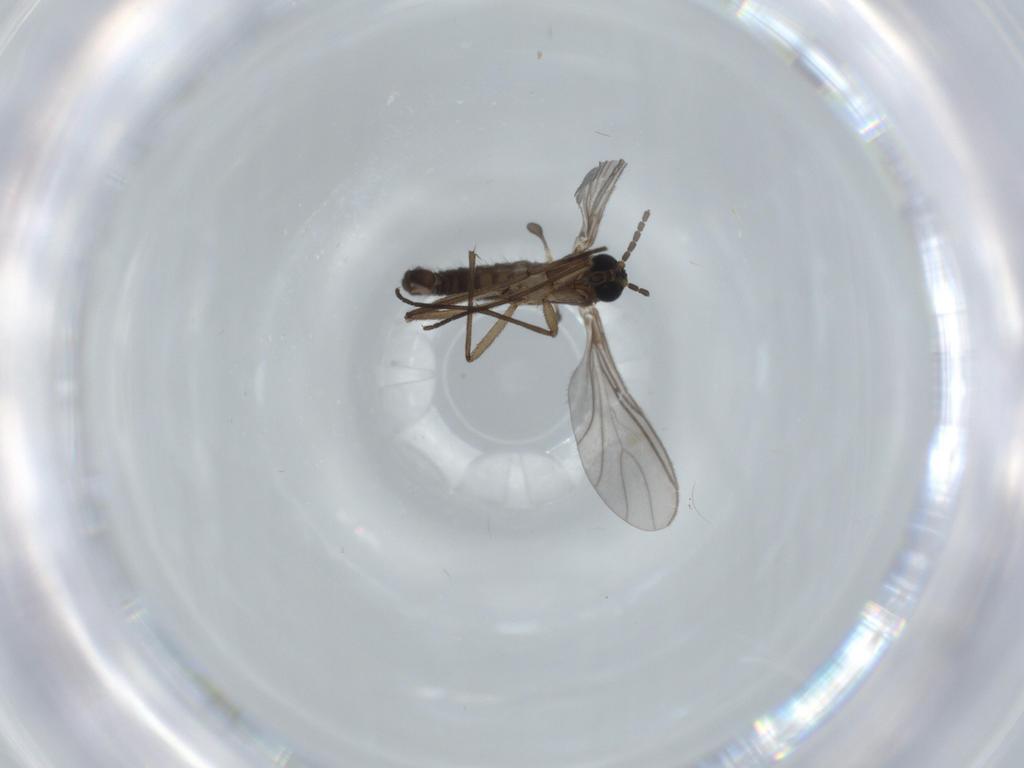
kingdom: Animalia
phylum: Arthropoda
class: Insecta
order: Diptera
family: Sciaridae
